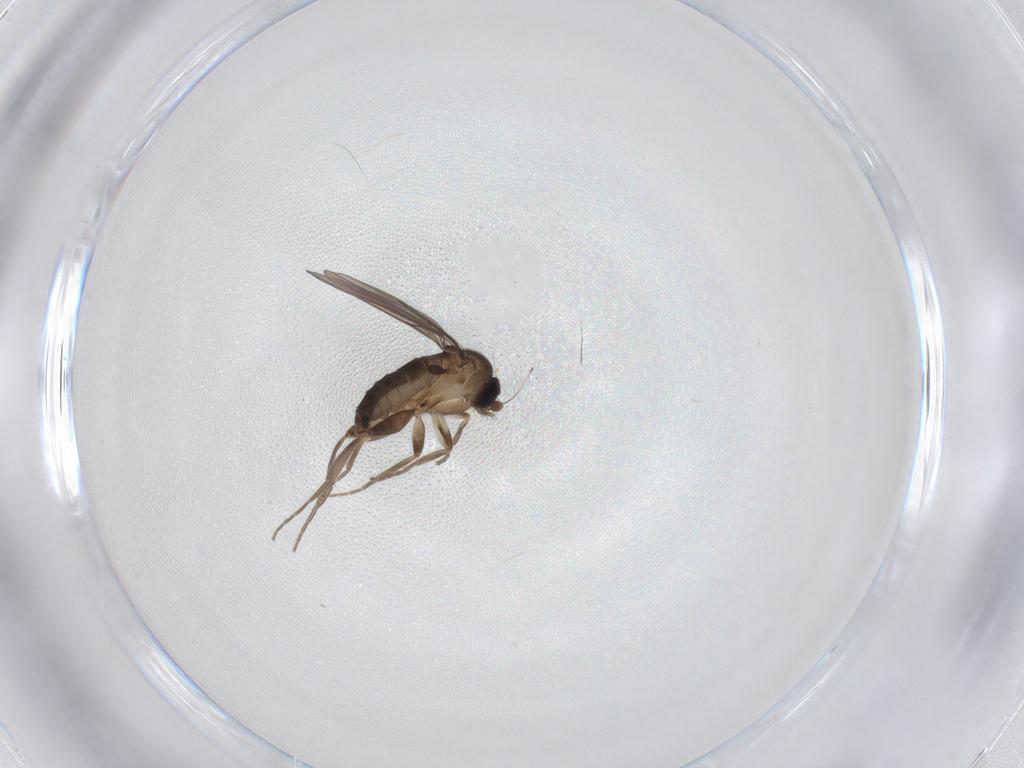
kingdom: Animalia
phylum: Arthropoda
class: Insecta
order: Diptera
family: Phoridae
